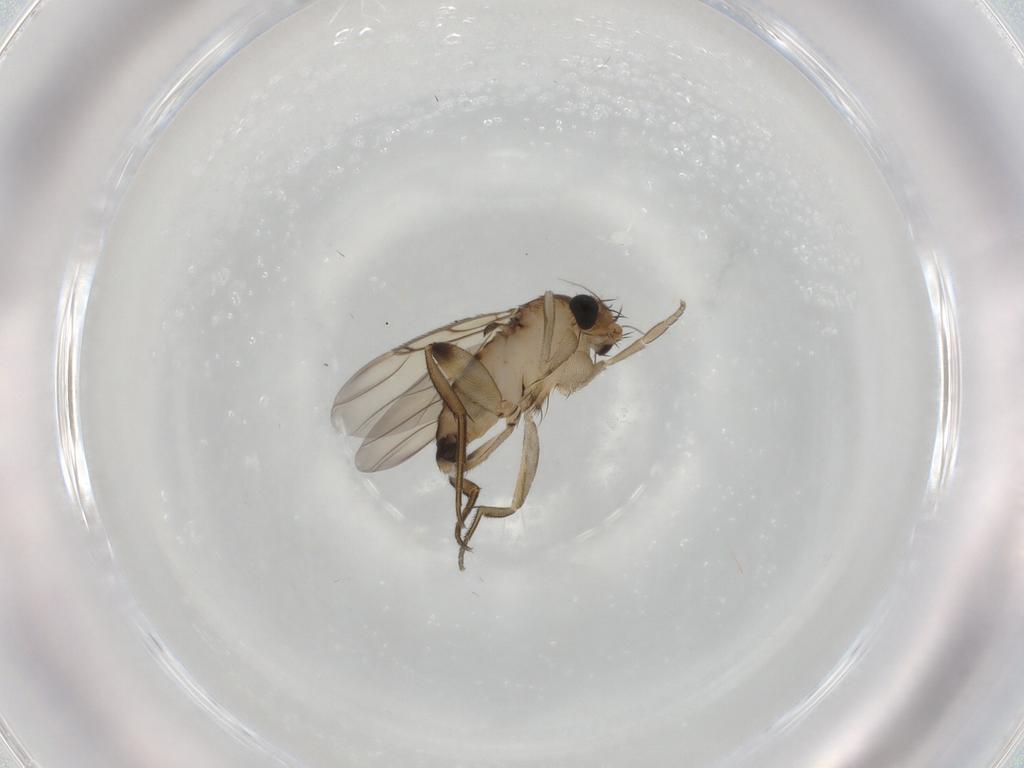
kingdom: Animalia
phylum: Arthropoda
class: Insecta
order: Diptera
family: Phoridae
